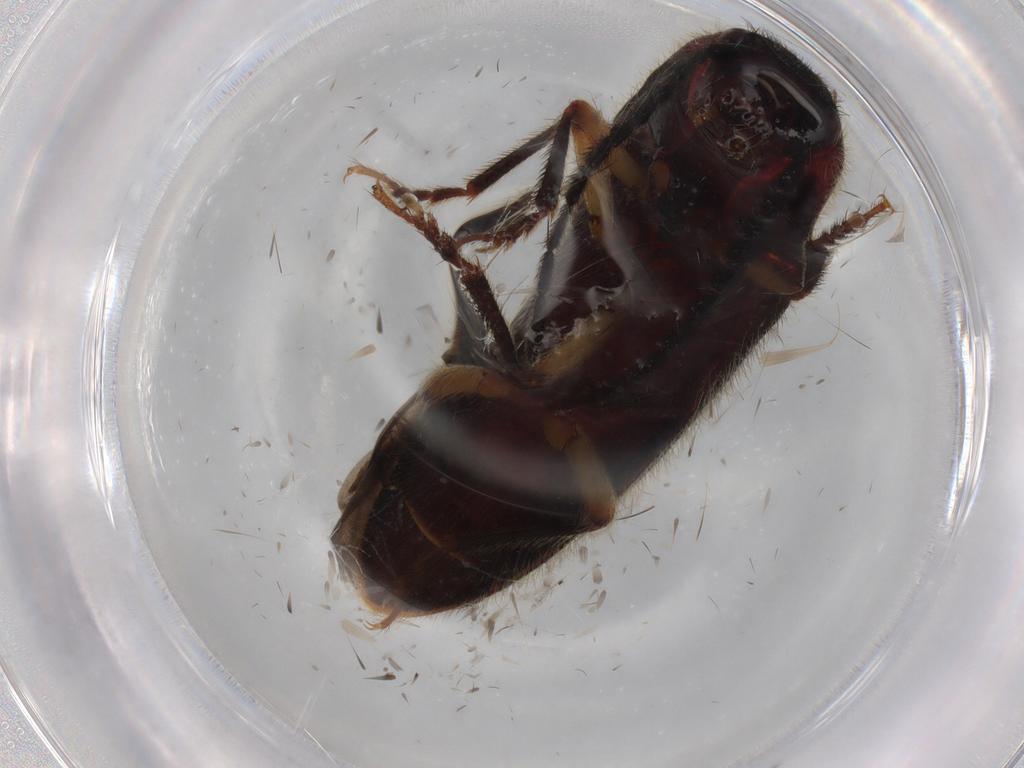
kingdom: Animalia
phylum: Arthropoda
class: Insecta
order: Coleoptera
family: Elateridae
